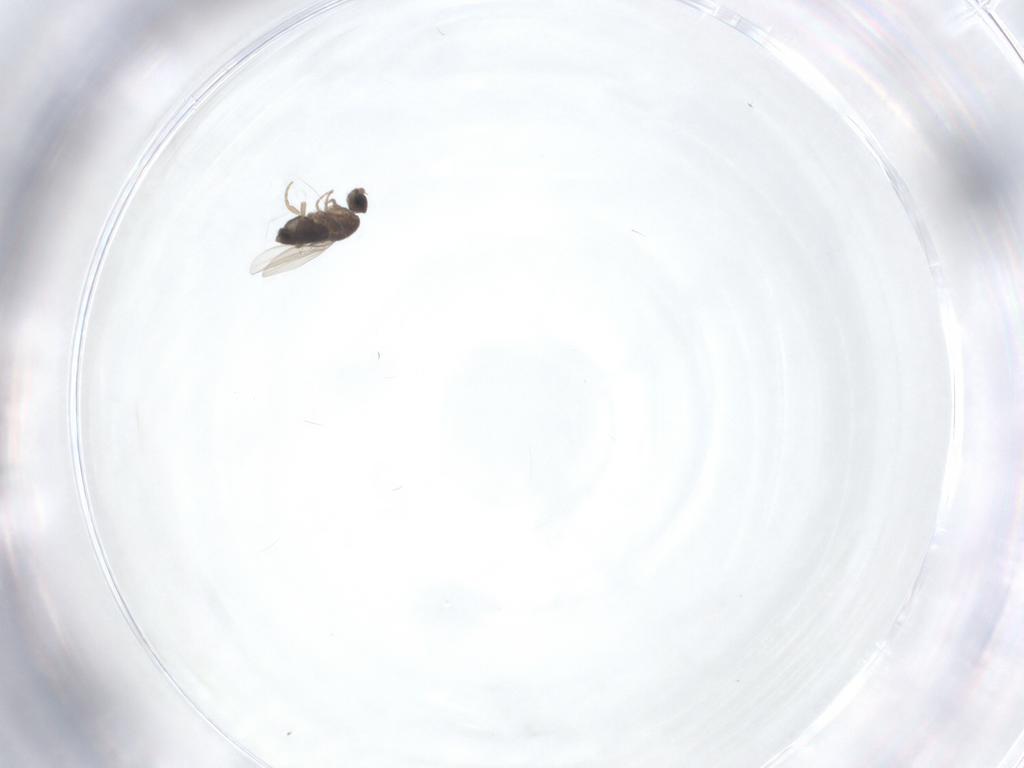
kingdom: Animalia
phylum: Arthropoda
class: Insecta
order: Diptera
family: Phoridae
